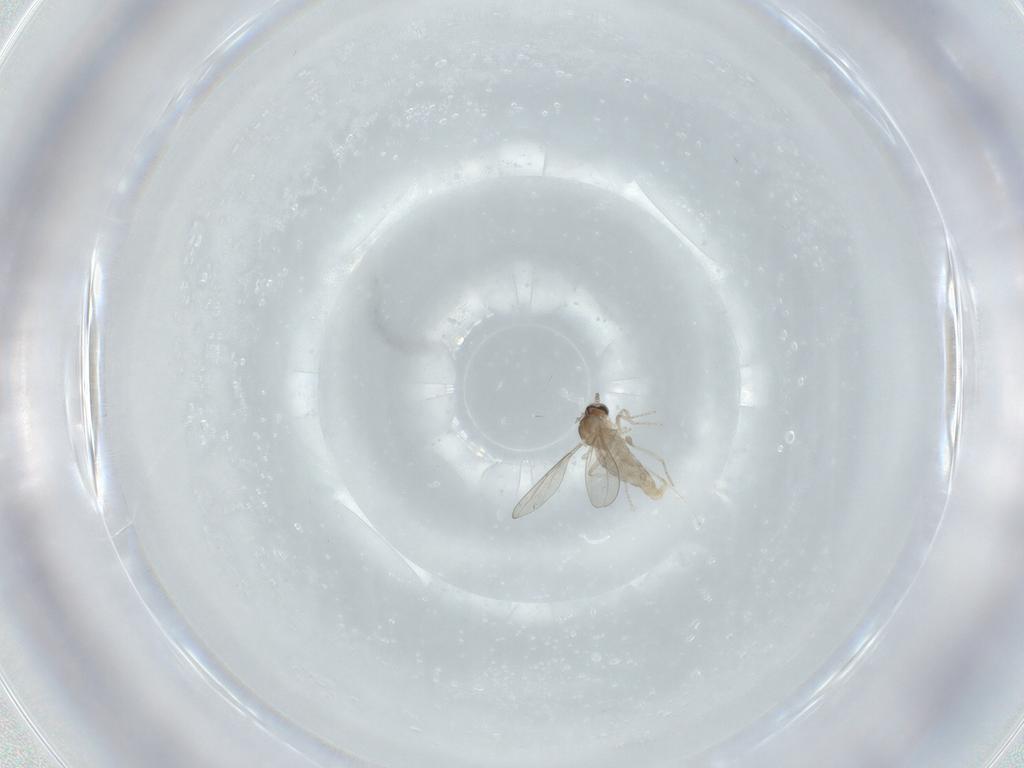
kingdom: Animalia
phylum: Arthropoda
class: Insecta
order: Diptera
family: Chironomidae
